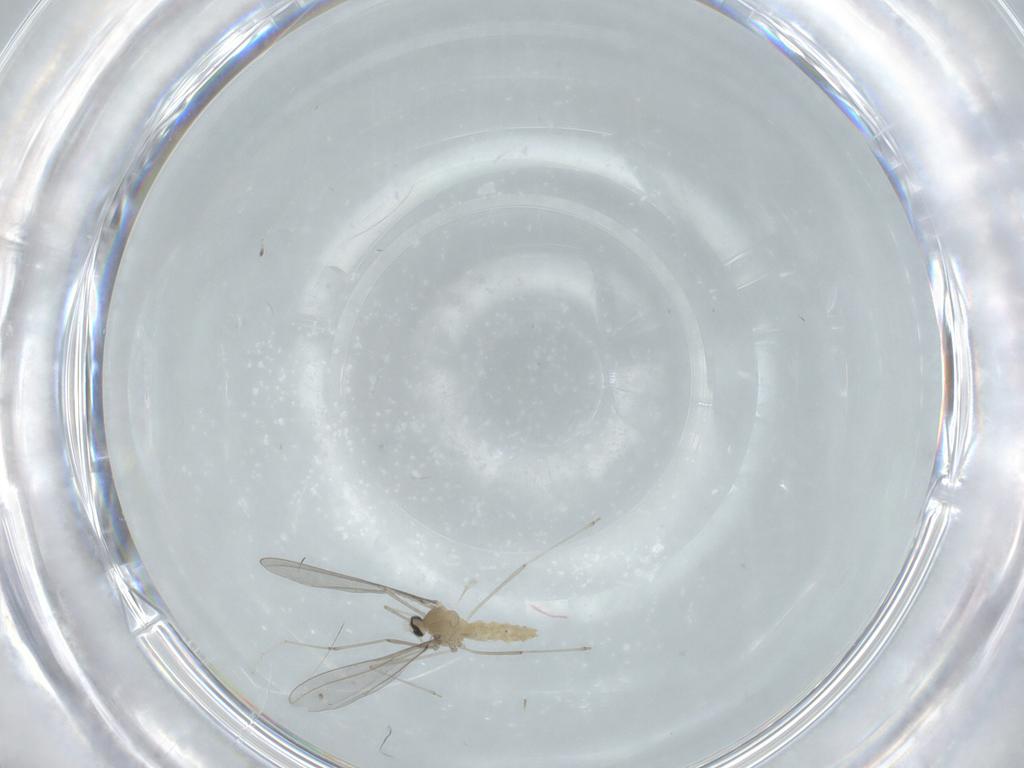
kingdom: Animalia
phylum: Arthropoda
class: Insecta
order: Diptera
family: Cecidomyiidae
